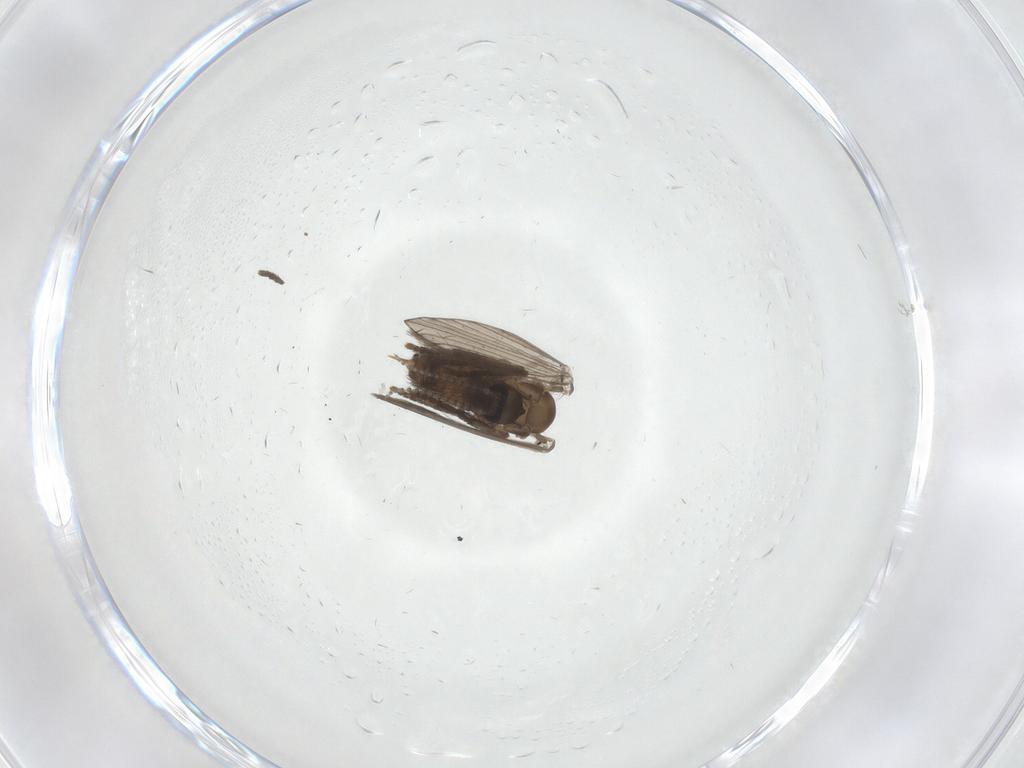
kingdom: Animalia
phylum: Arthropoda
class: Insecta
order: Diptera
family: Psychodidae
